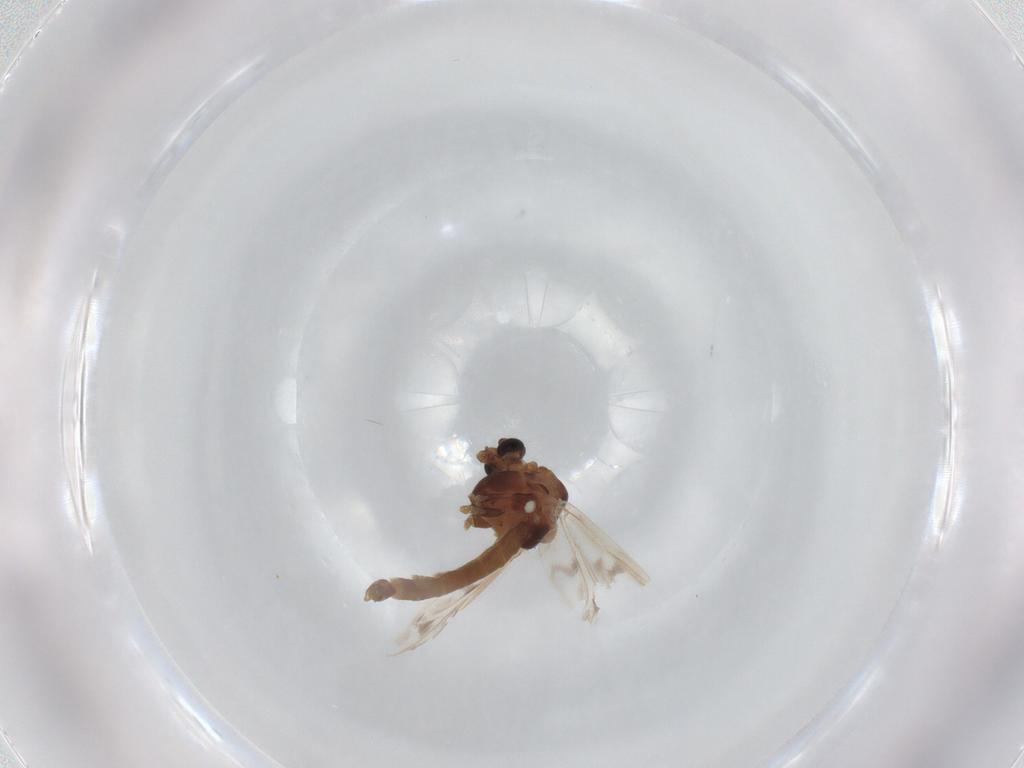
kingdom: Animalia
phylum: Arthropoda
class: Insecta
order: Diptera
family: Chironomidae
